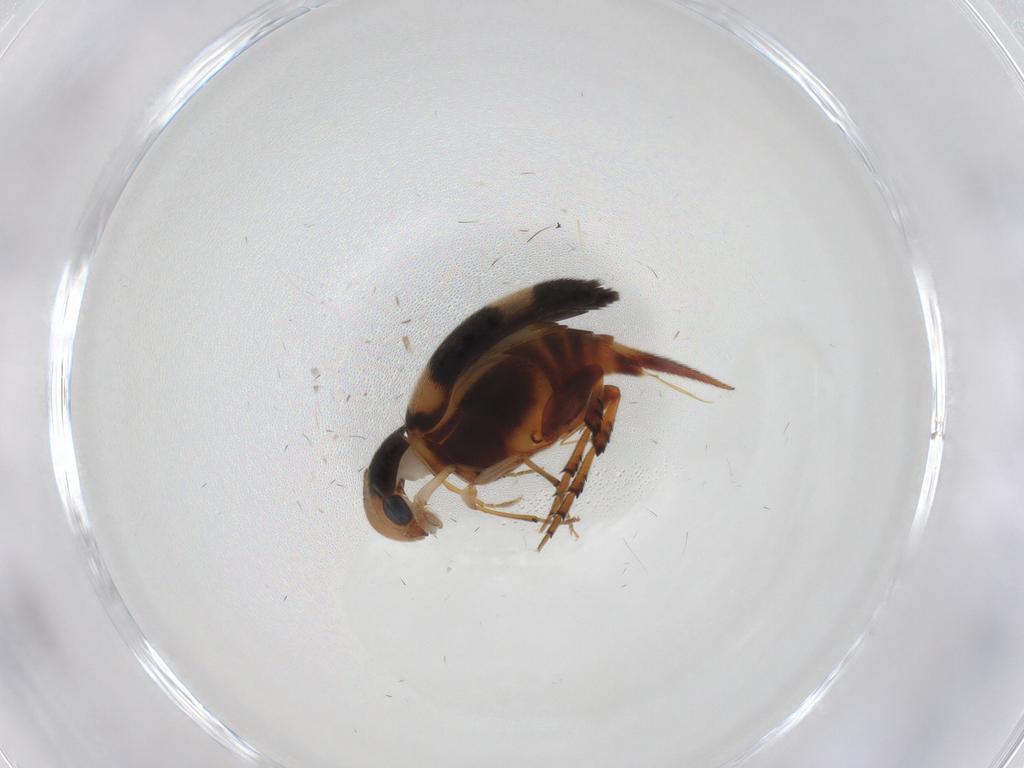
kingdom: Animalia
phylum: Arthropoda
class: Insecta
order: Coleoptera
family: Mordellidae
